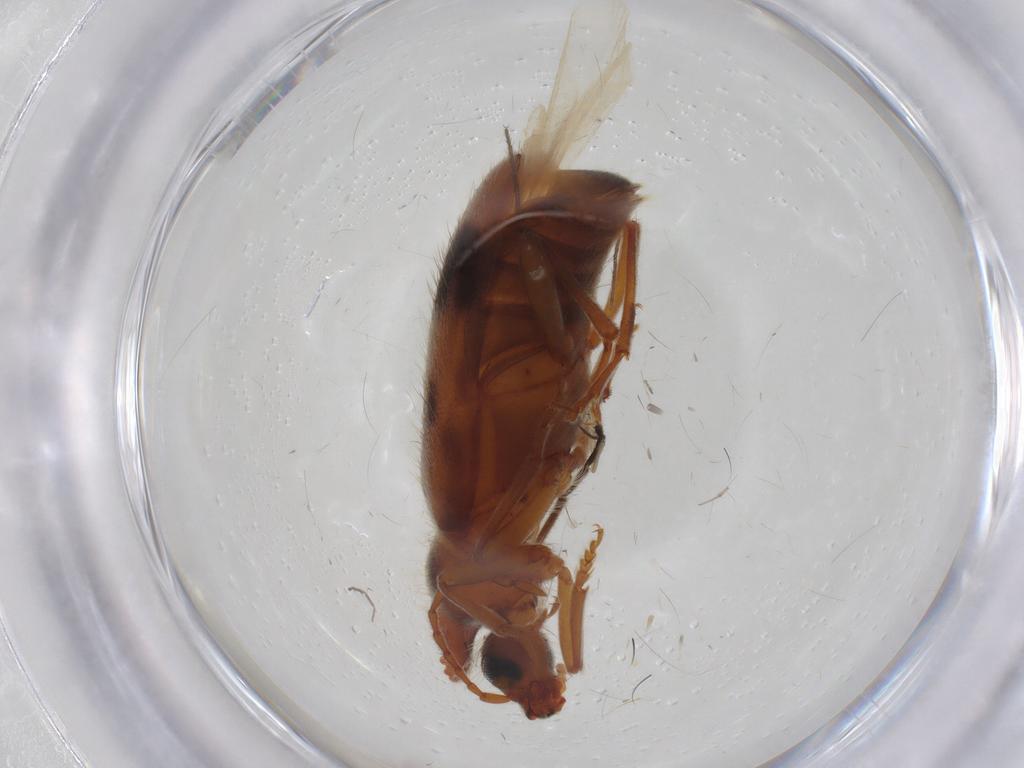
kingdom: Animalia
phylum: Arthropoda
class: Insecta
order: Coleoptera
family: Anthicidae
